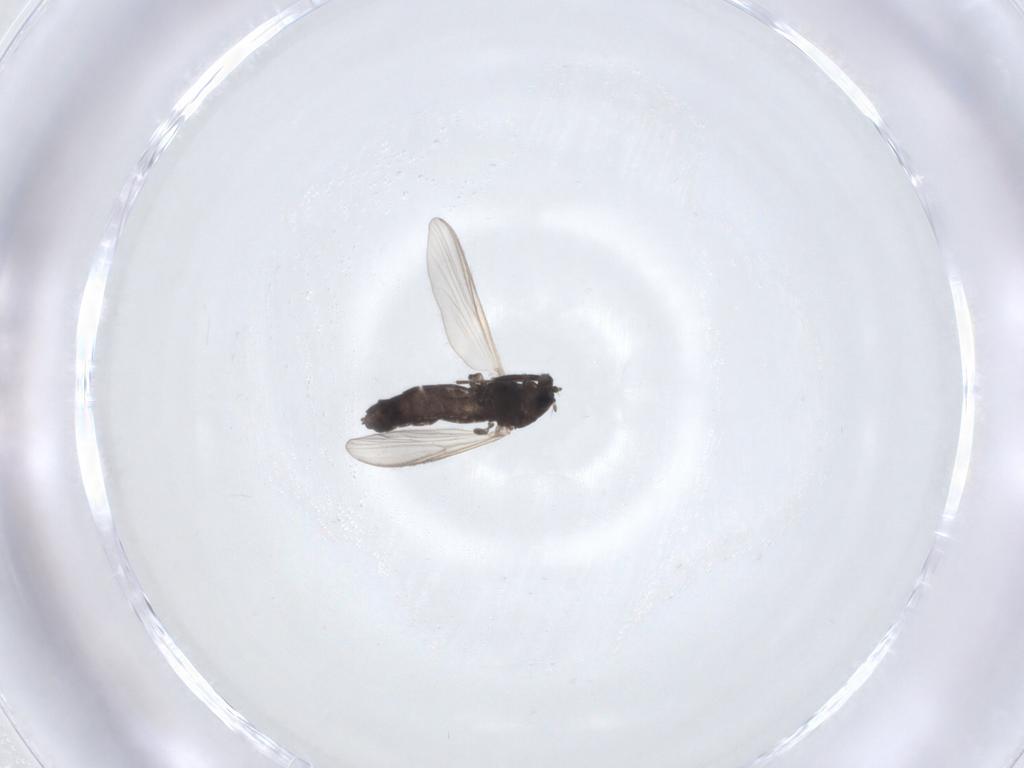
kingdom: Animalia
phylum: Arthropoda
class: Insecta
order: Diptera
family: Chironomidae
